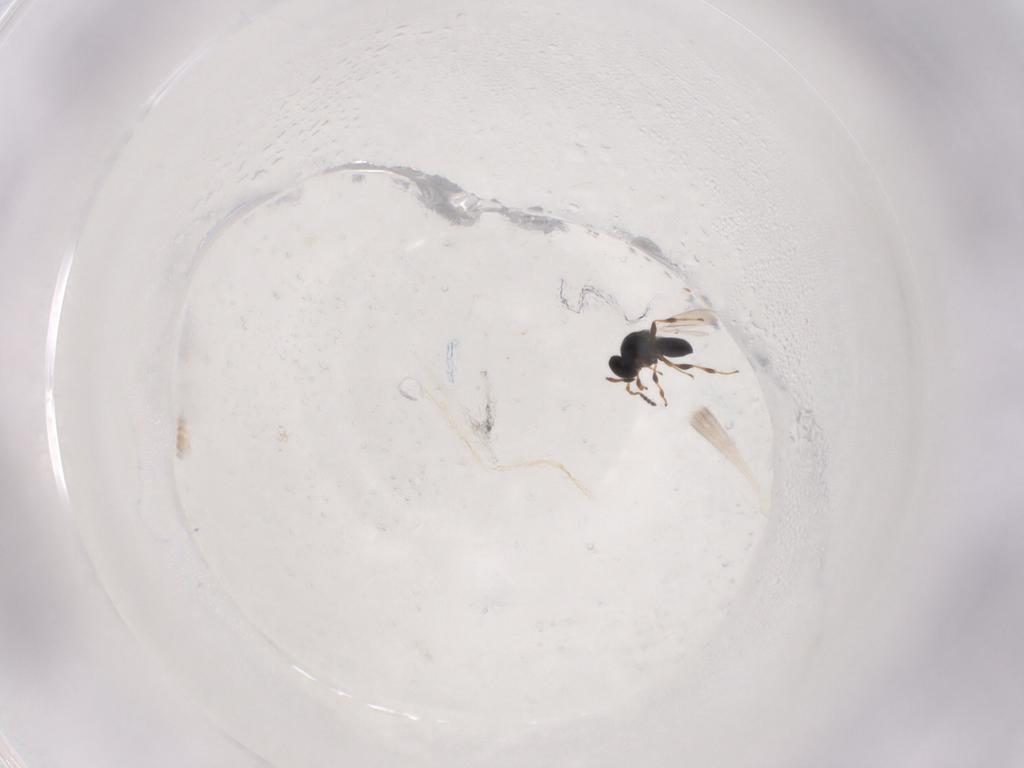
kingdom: Animalia
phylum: Arthropoda
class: Insecta
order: Hymenoptera
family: Platygastridae
